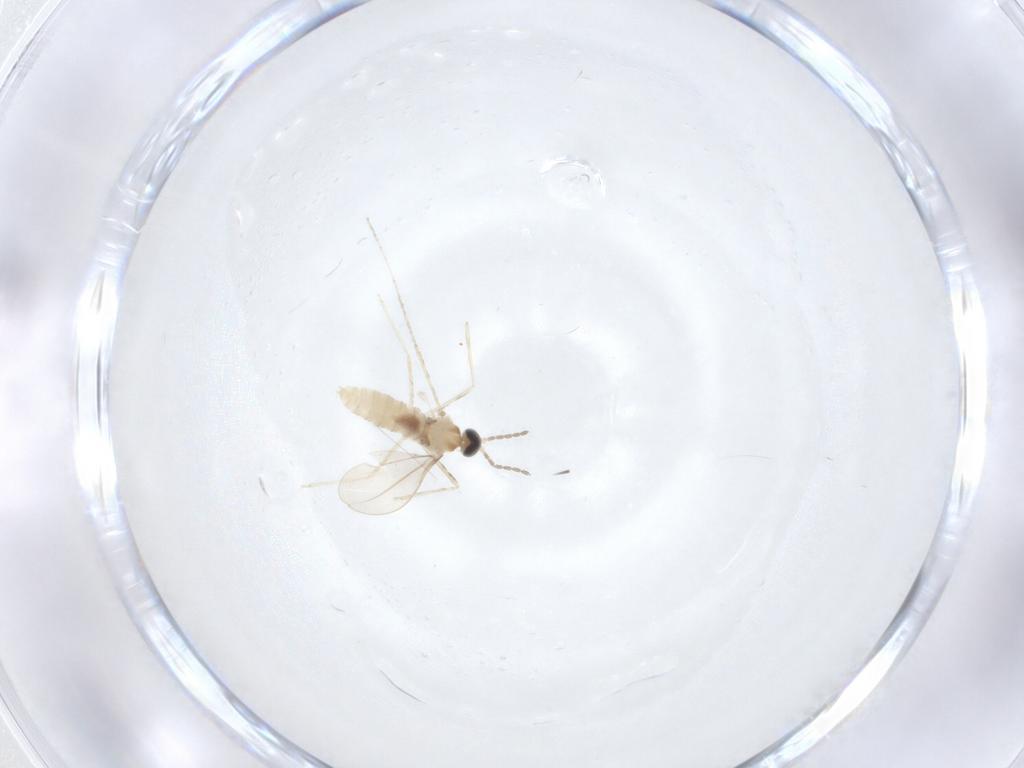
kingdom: Animalia
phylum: Arthropoda
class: Insecta
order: Diptera
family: Cecidomyiidae
